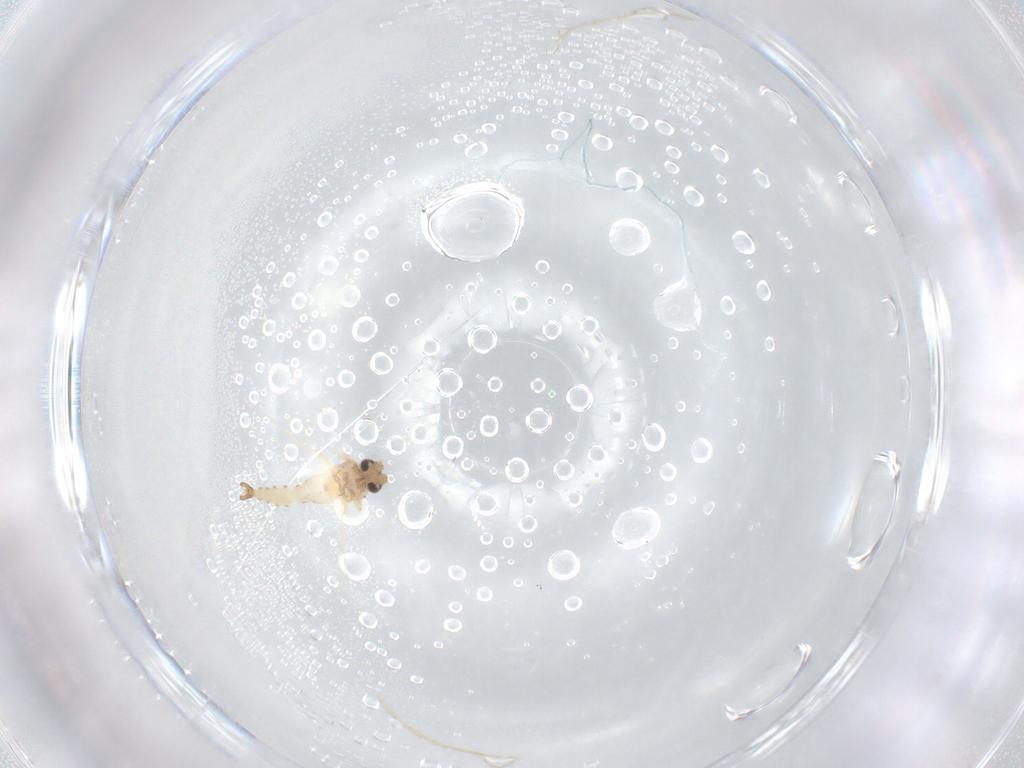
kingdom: Animalia
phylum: Arthropoda
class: Insecta
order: Diptera
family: Ceratopogonidae
